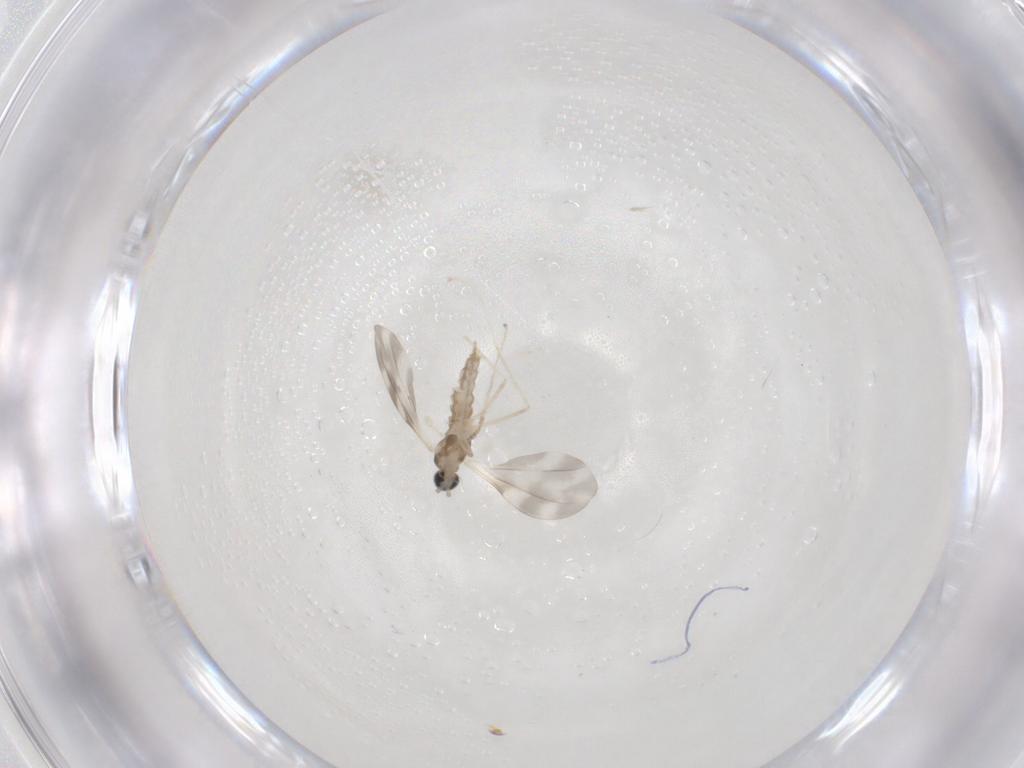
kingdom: Animalia
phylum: Arthropoda
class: Insecta
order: Diptera
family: Cecidomyiidae
